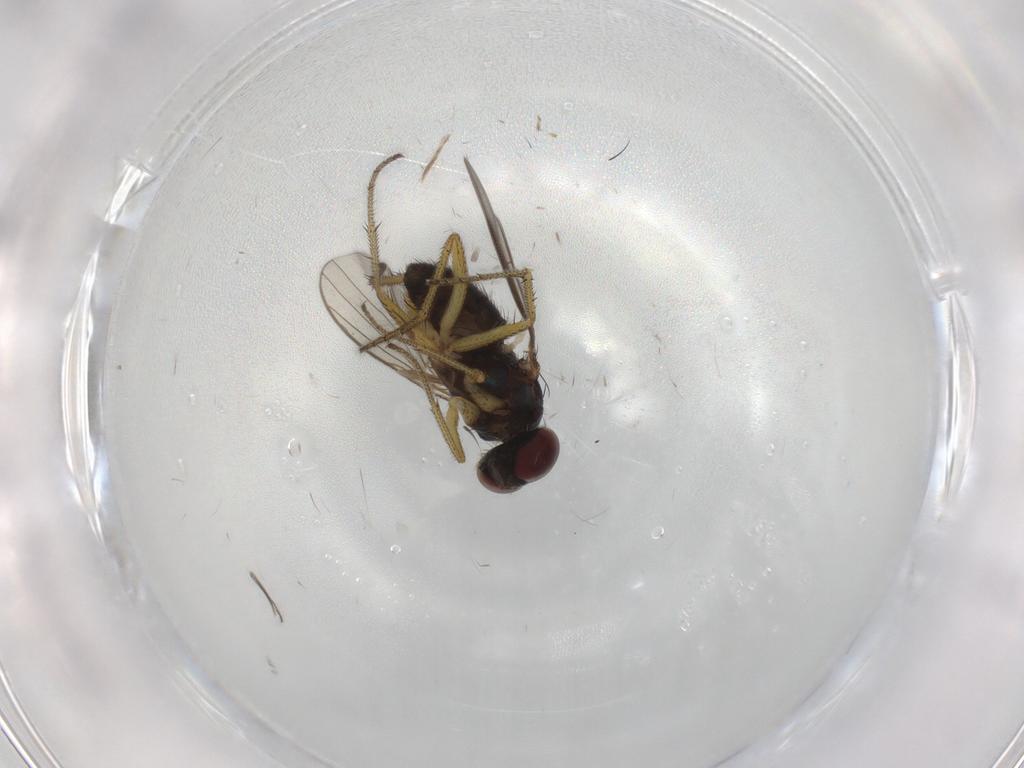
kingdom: Animalia
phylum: Arthropoda
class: Insecta
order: Diptera
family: Dolichopodidae
